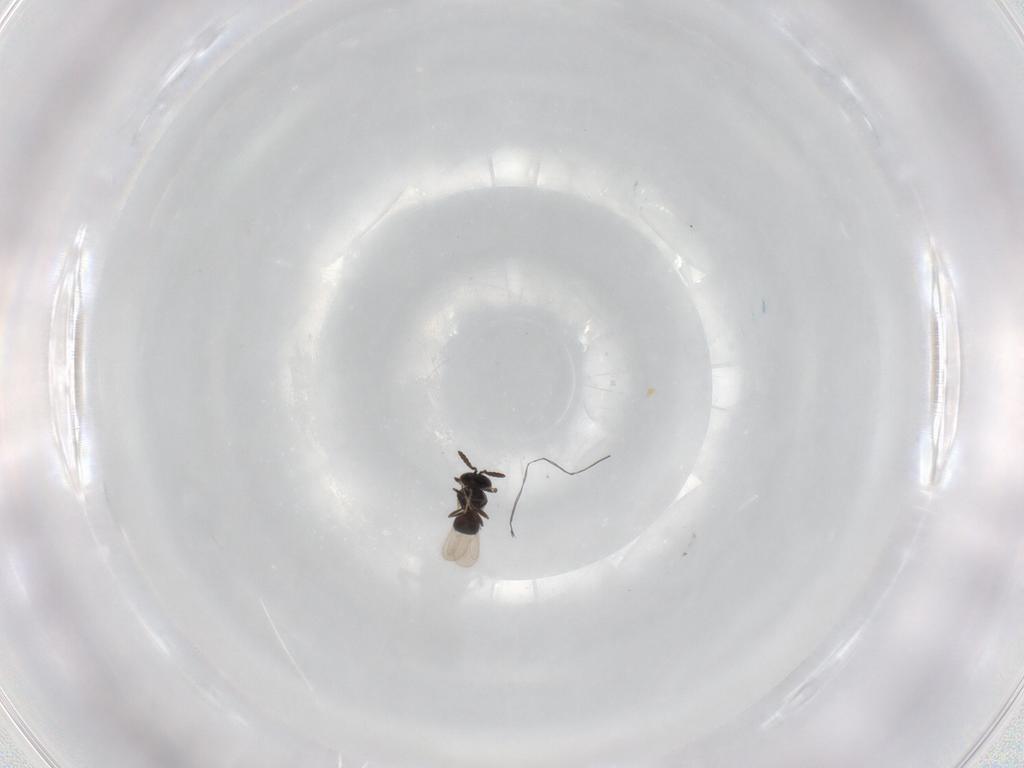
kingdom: Animalia
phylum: Arthropoda
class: Insecta
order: Hymenoptera
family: Scelionidae
